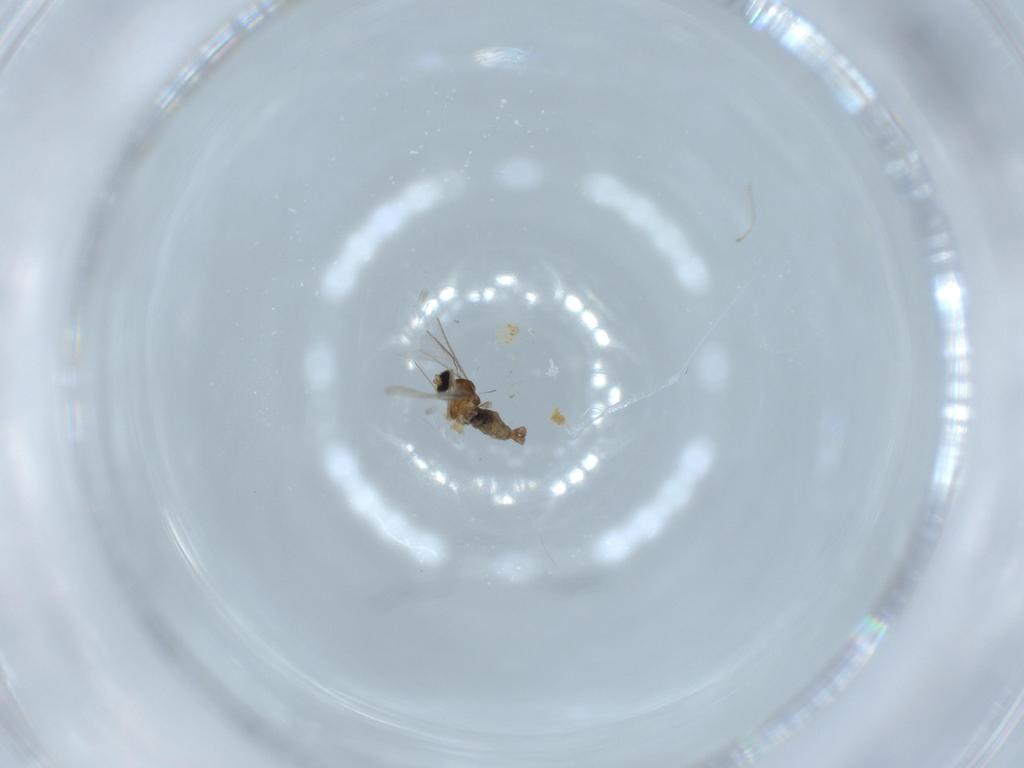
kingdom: Animalia
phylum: Arthropoda
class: Insecta
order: Diptera
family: Cecidomyiidae
